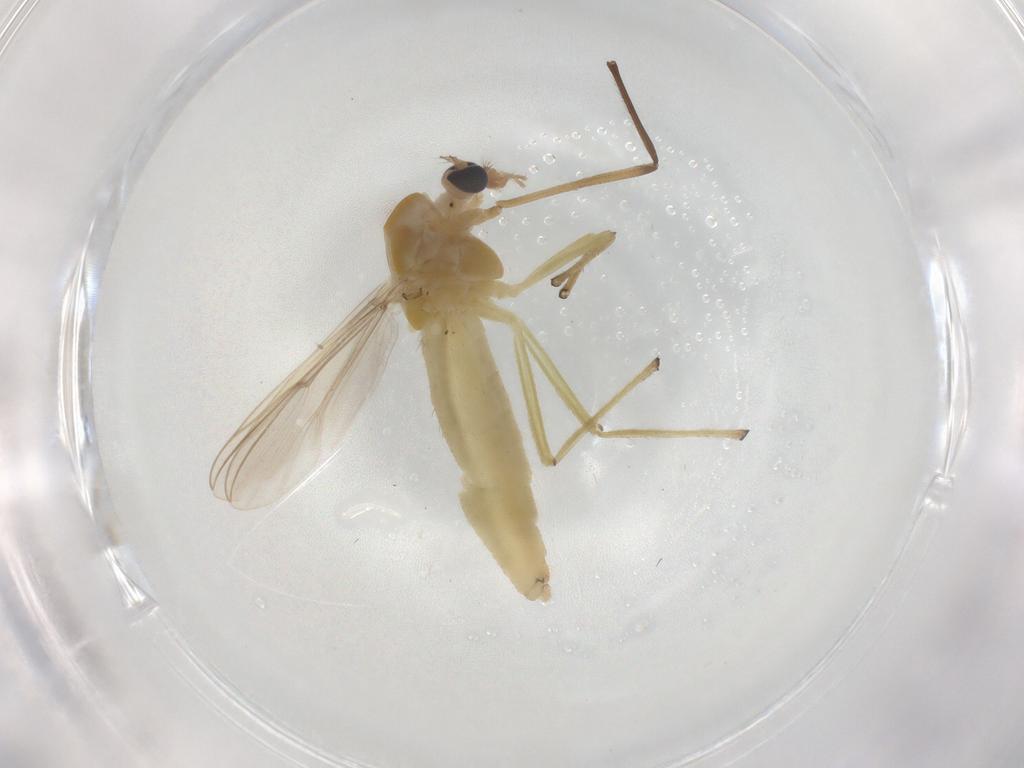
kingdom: Animalia
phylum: Arthropoda
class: Insecta
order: Diptera
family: Chironomidae
